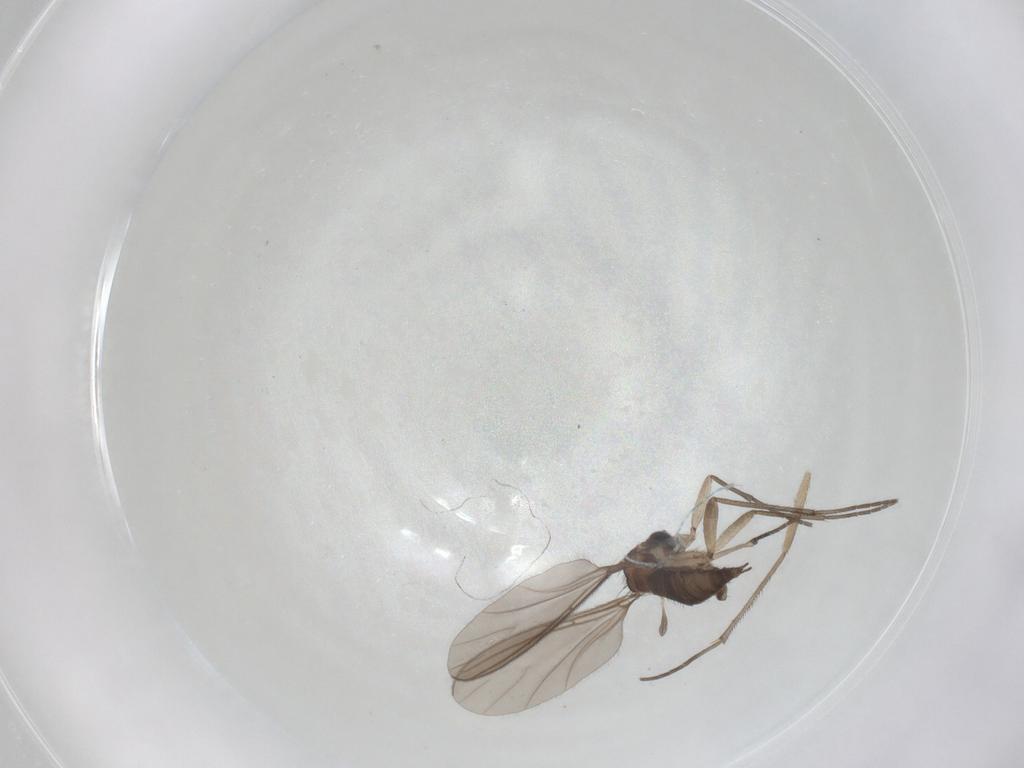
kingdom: Animalia
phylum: Arthropoda
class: Insecta
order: Diptera
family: Sciaridae
